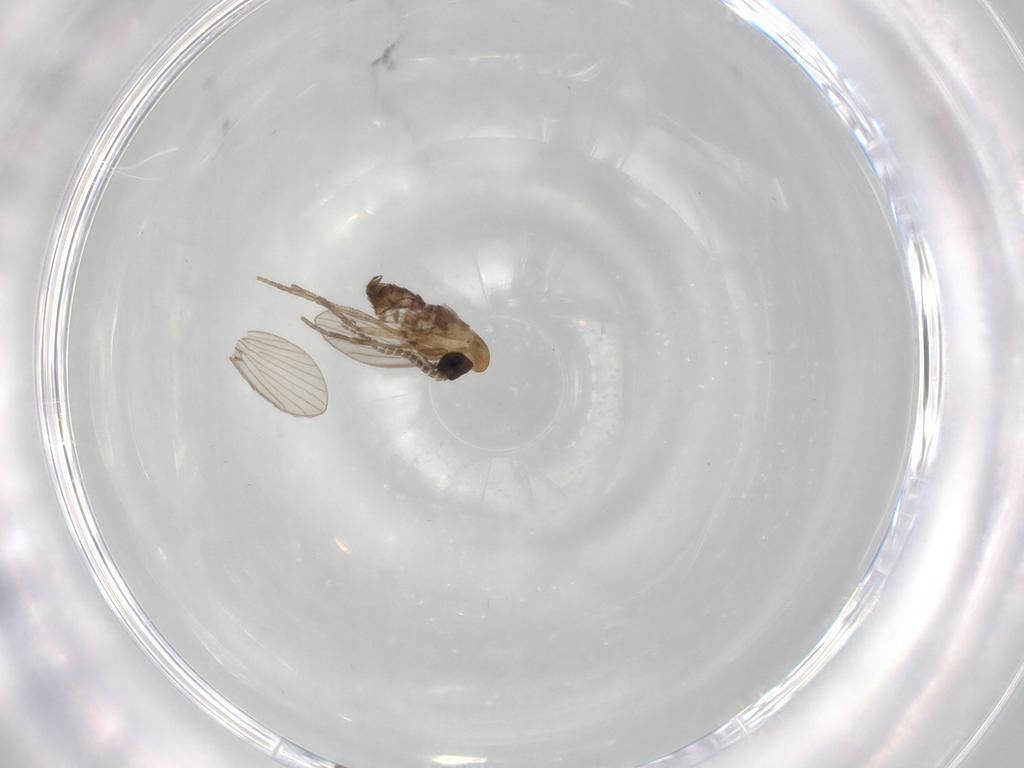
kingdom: Animalia
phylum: Arthropoda
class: Insecta
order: Diptera
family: Psychodidae
